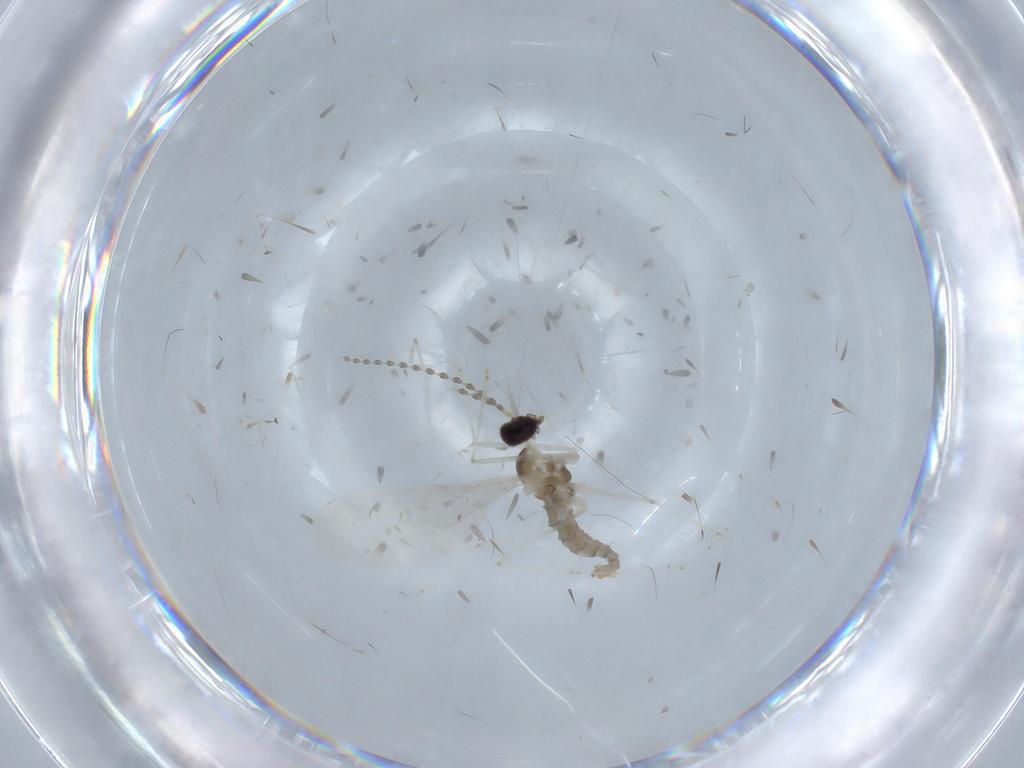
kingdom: Animalia
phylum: Arthropoda
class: Insecta
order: Diptera
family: Cecidomyiidae
